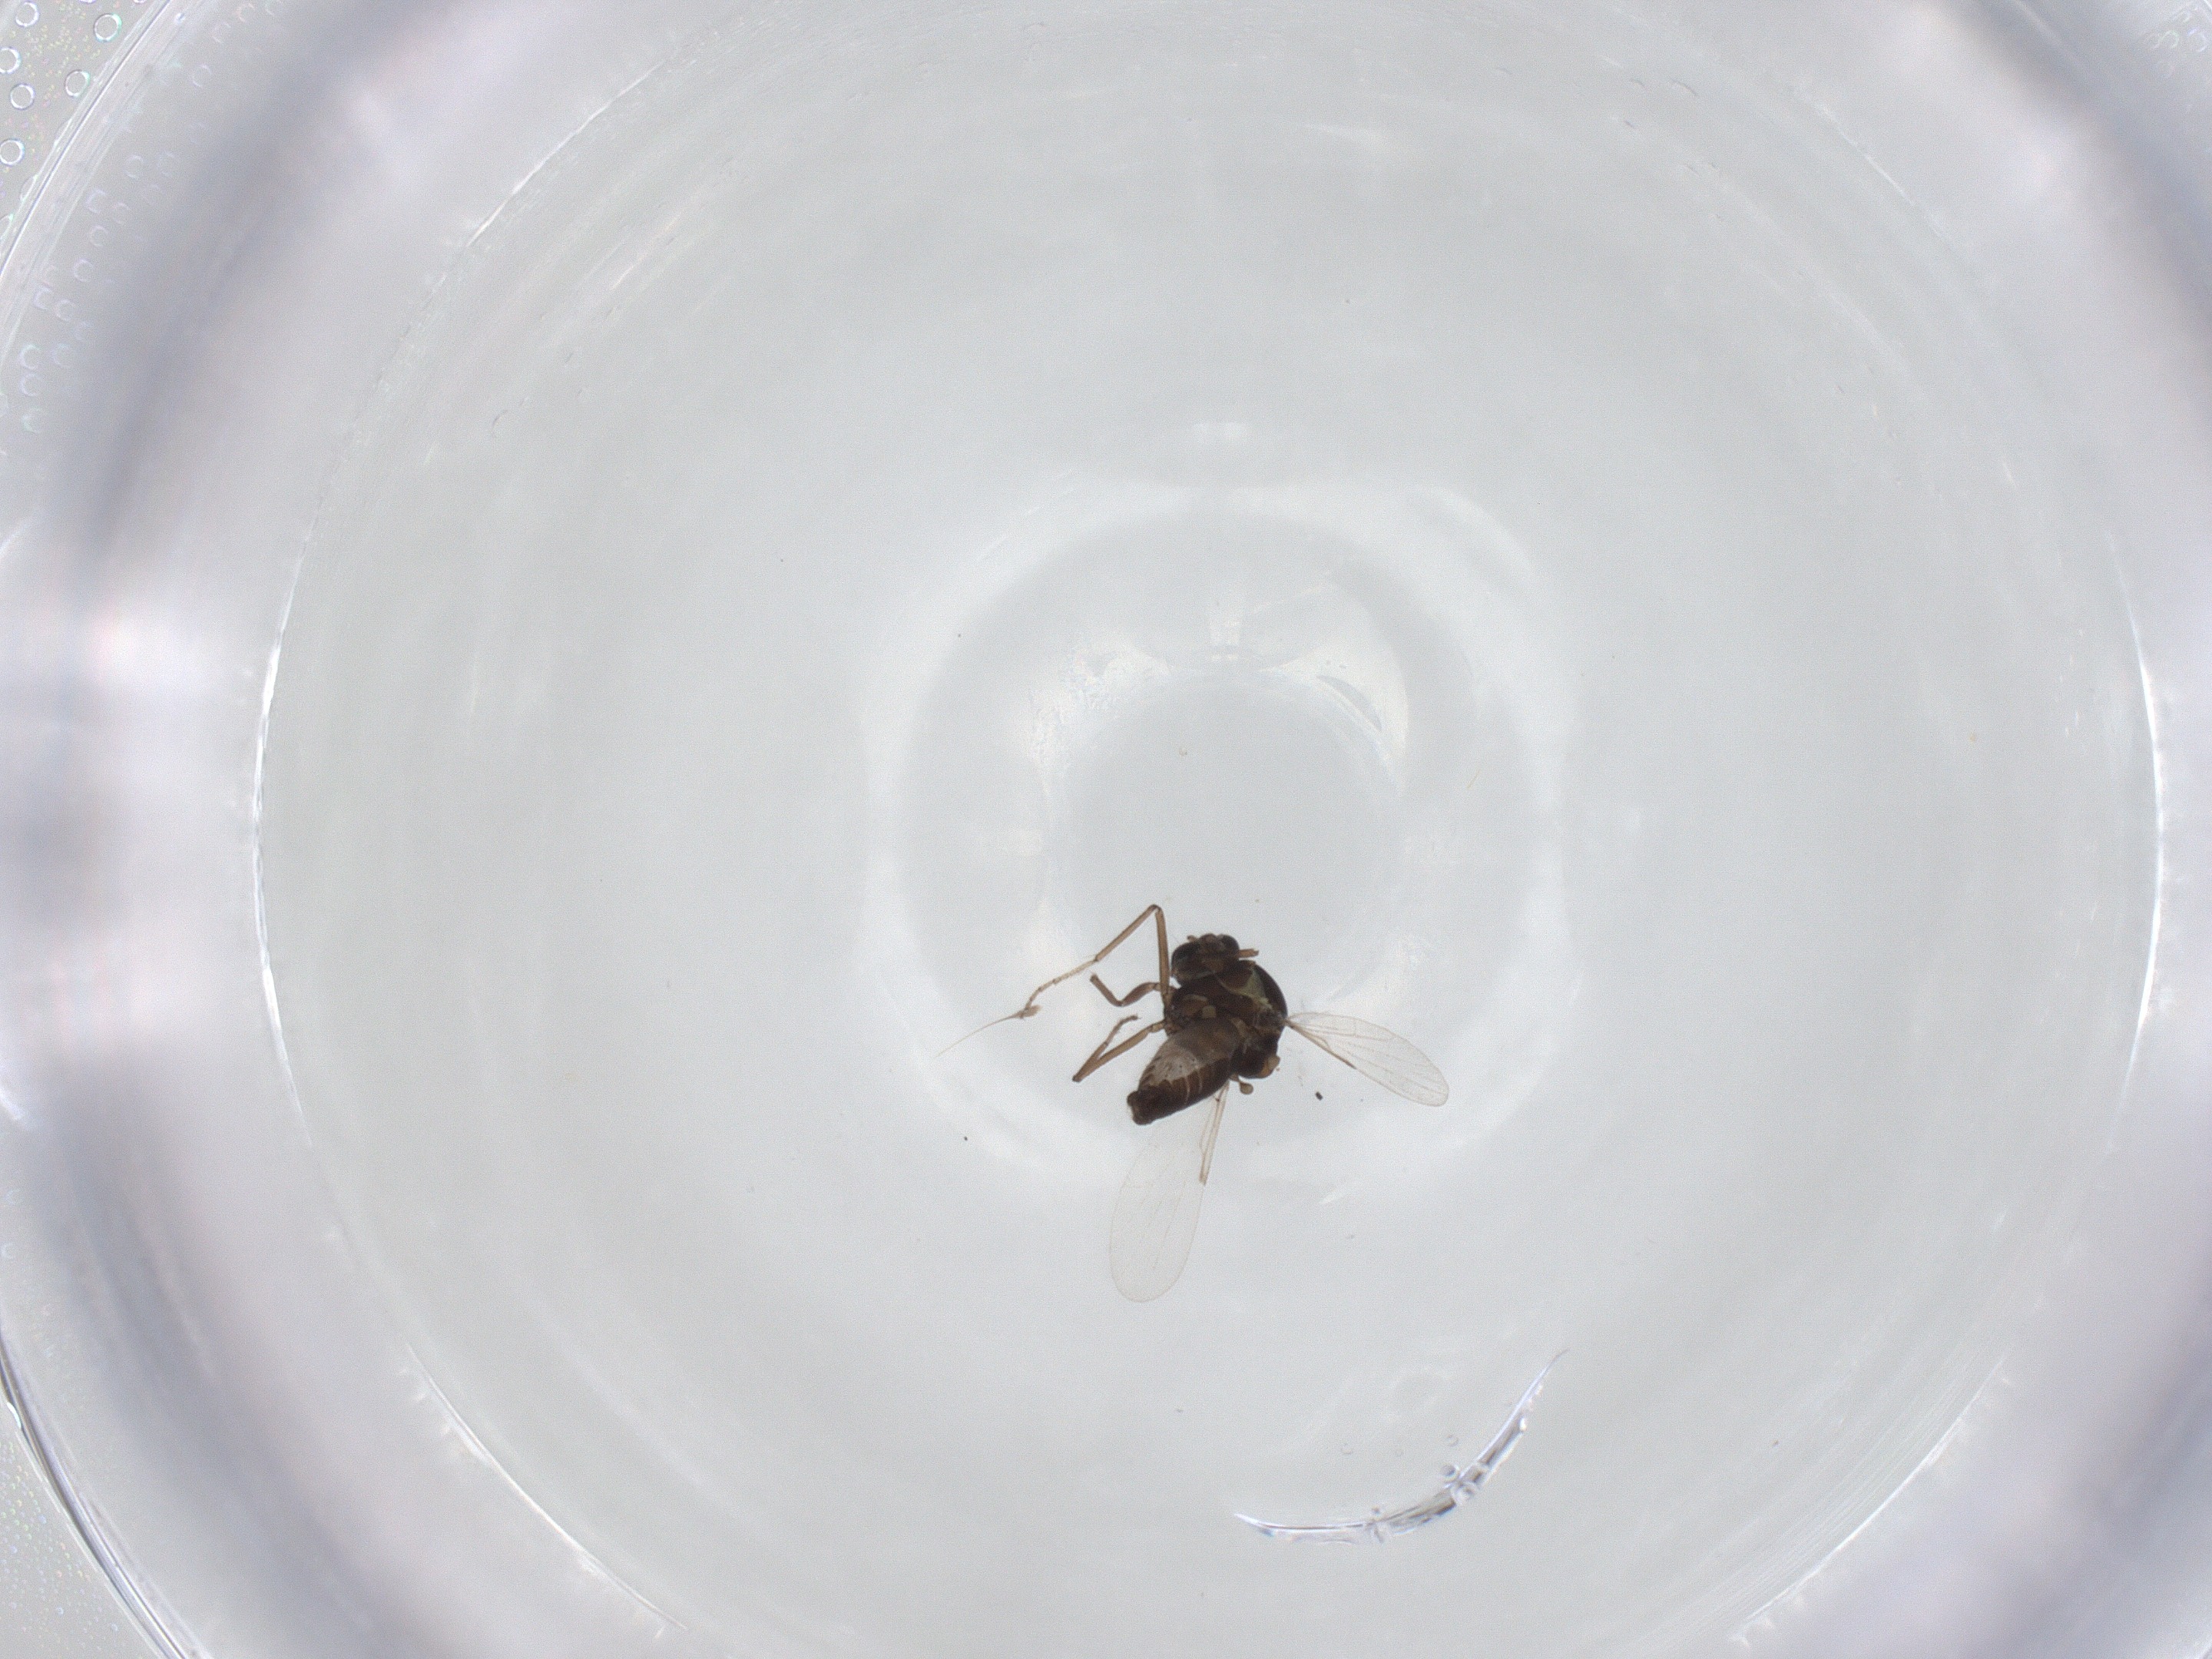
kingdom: Animalia
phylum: Arthropoda
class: Insecta
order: Diptera
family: Ceratopogonidae
